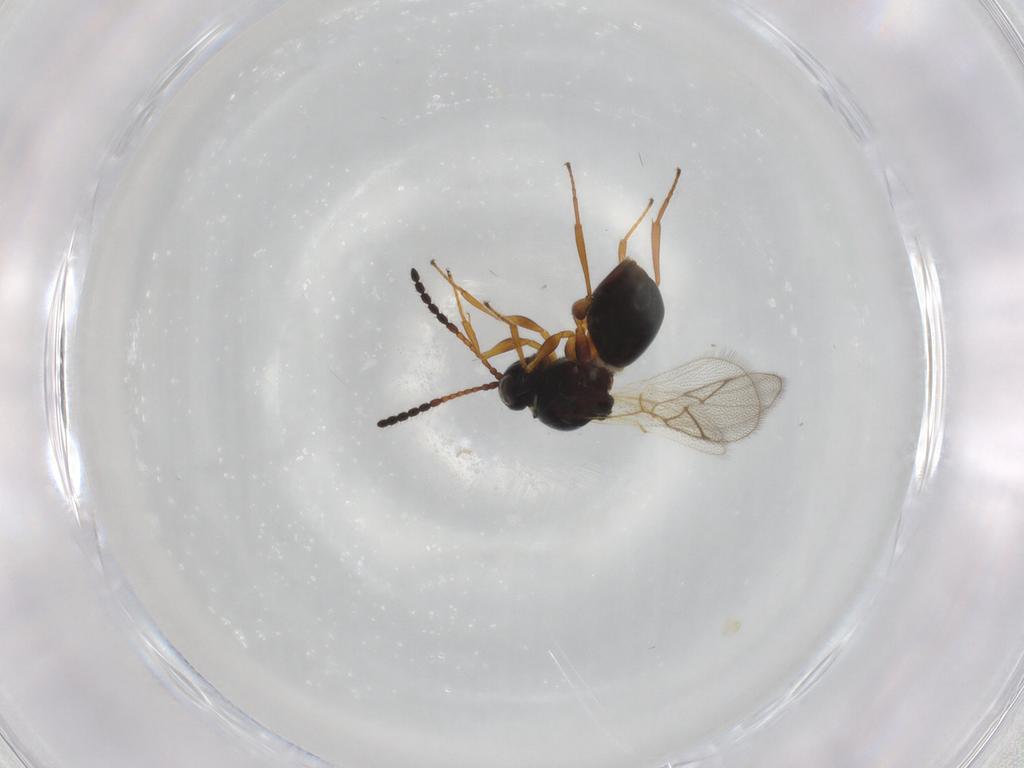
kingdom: Animalia
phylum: Arthropoda
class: Insecta
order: Hymenoptera
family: Figitidae
